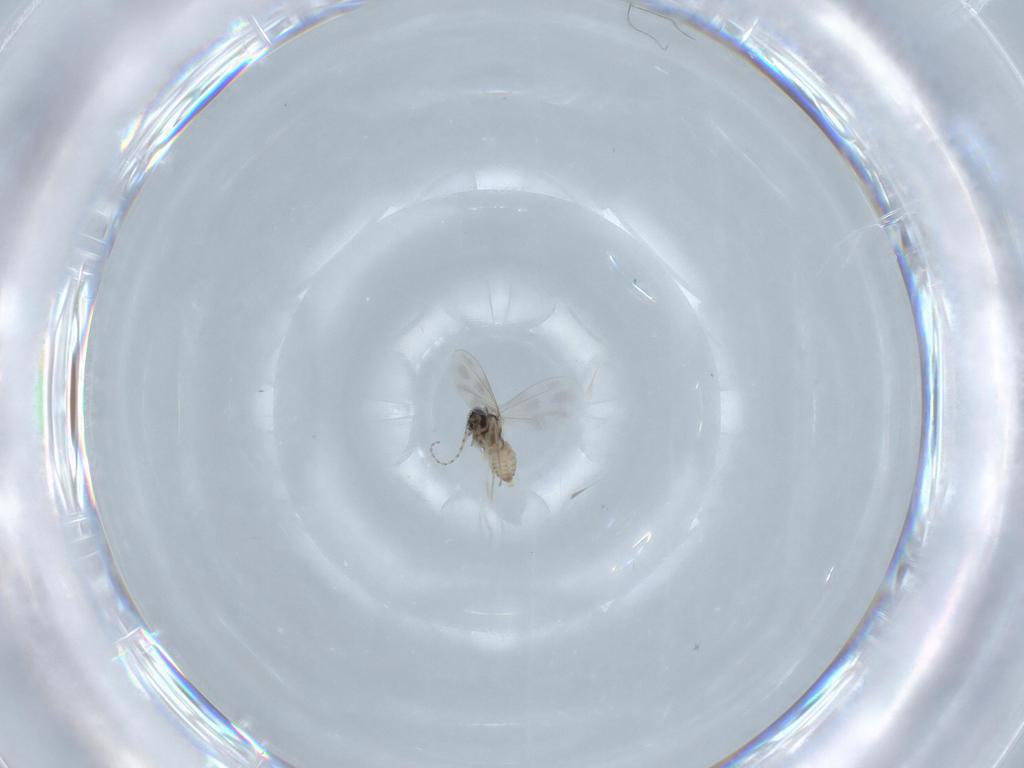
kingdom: Animalia
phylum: Arthropoda
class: Insecta
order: Diptera
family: Cecidomyiidae
